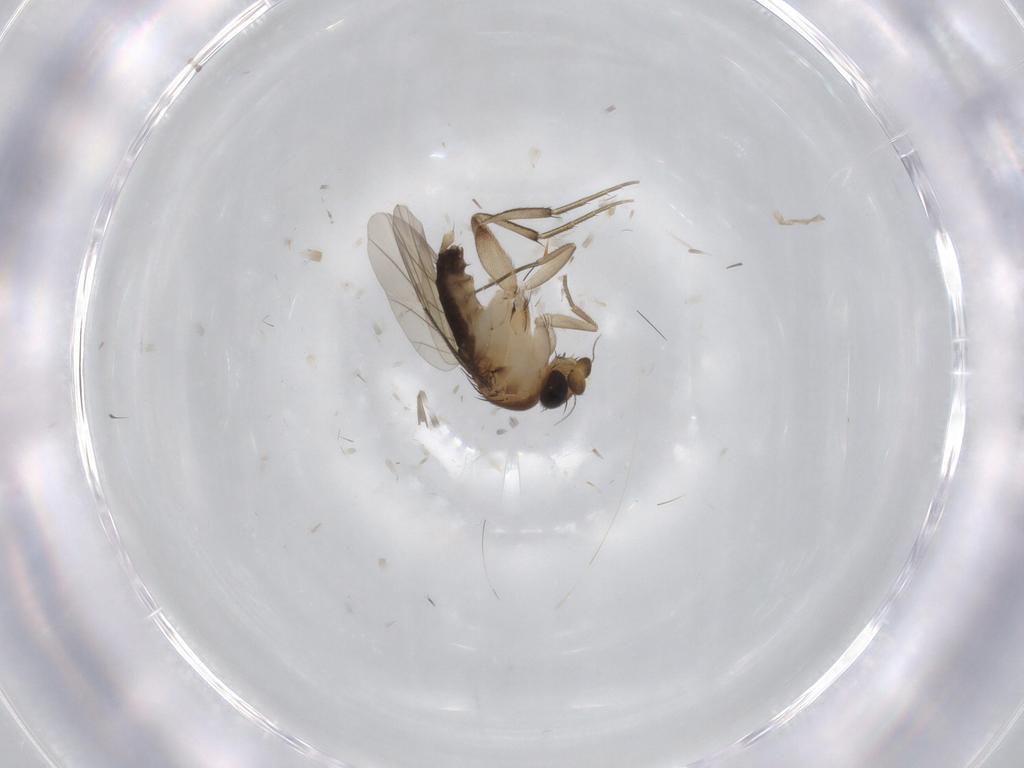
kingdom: Animalia
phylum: Arthropoda
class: Insecta
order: Diptera
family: Phoridae
